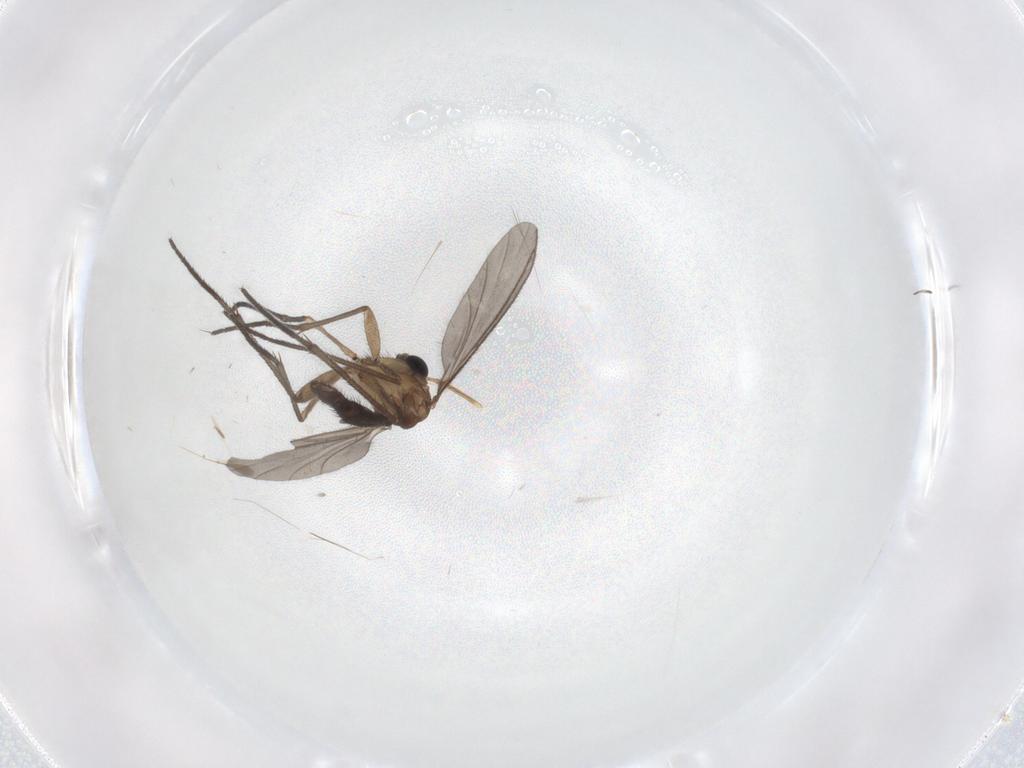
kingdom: Animalia
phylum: Arthropoda
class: Insecta
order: Diptera
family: Sciaridae
